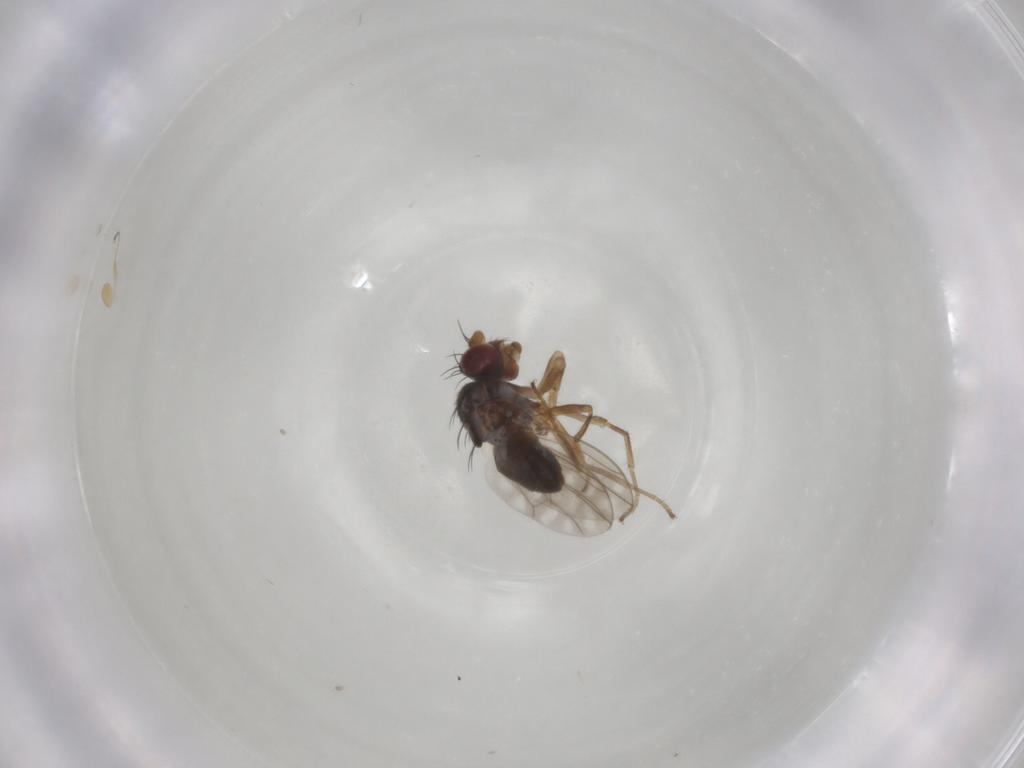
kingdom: Animalia
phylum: Arthropoda
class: Insecta
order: Diptera
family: Ephydridae
